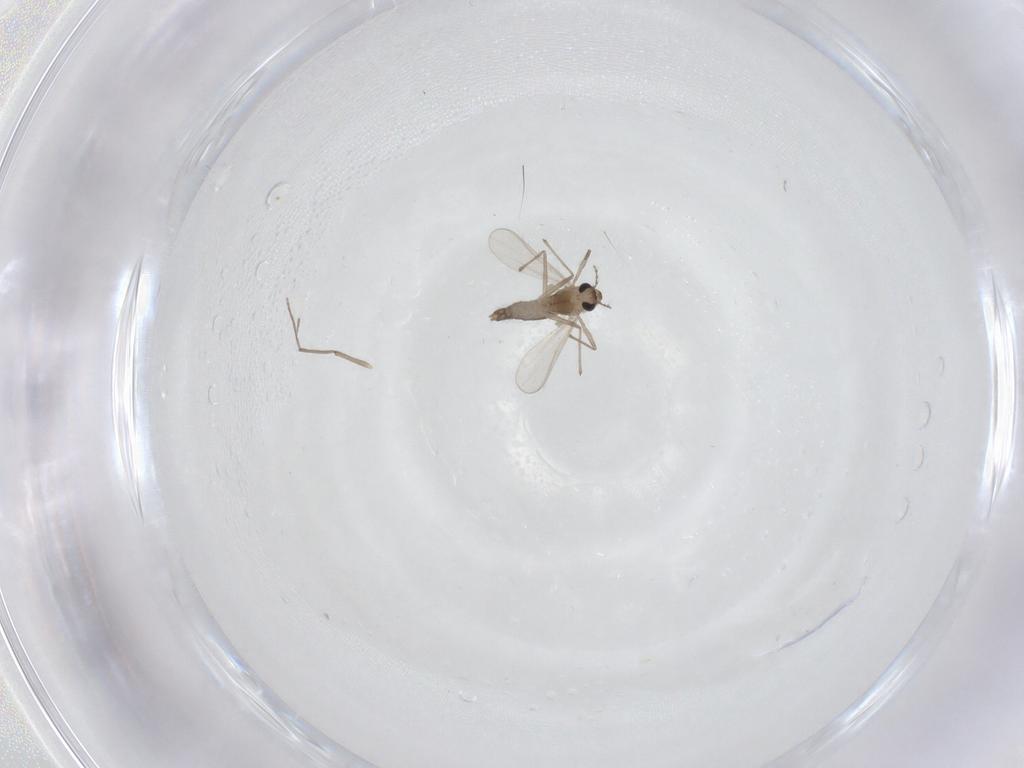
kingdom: Animalia
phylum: Arthropoda
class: Insecta
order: Diptera
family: Chironomidae
